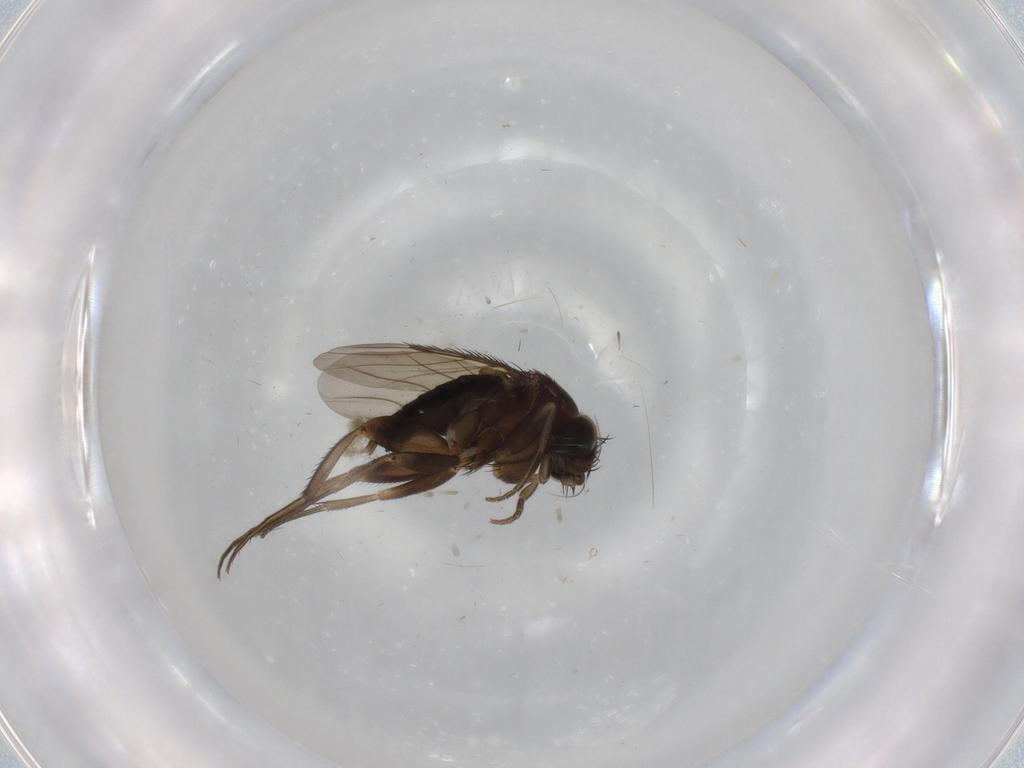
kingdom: Animalia
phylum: Arthropoda
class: Insecta
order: Diptera
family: Phoridae
